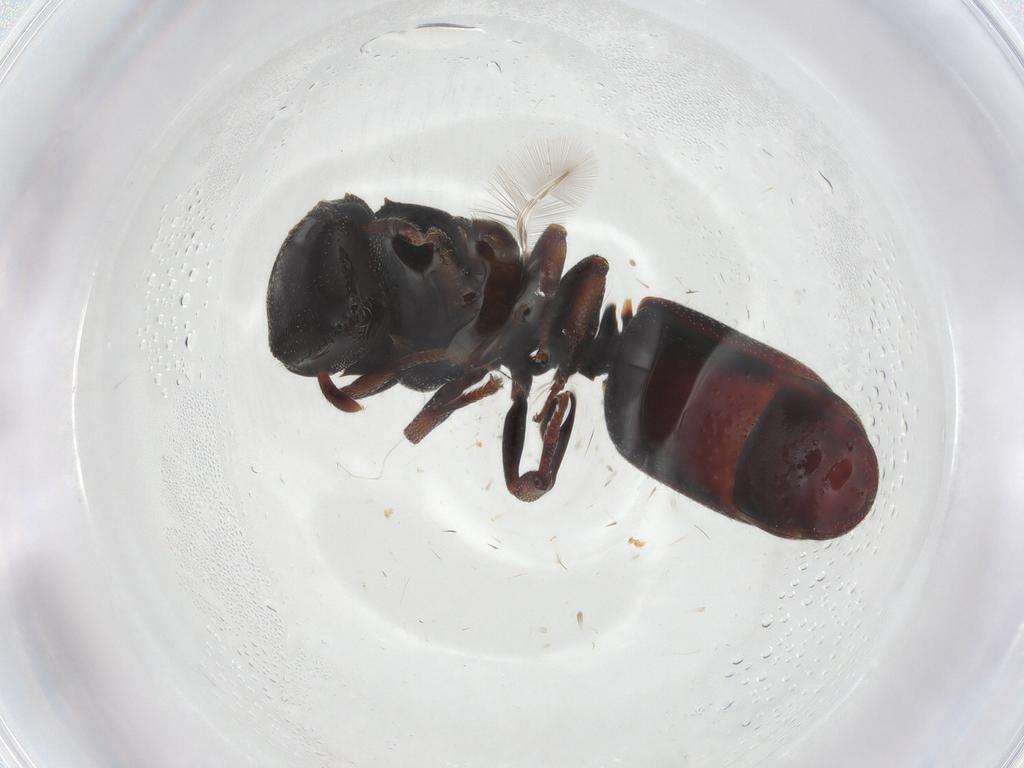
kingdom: Animalia
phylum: Arthropoda
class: Insecta
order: Hymenoptera
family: Formicidae
